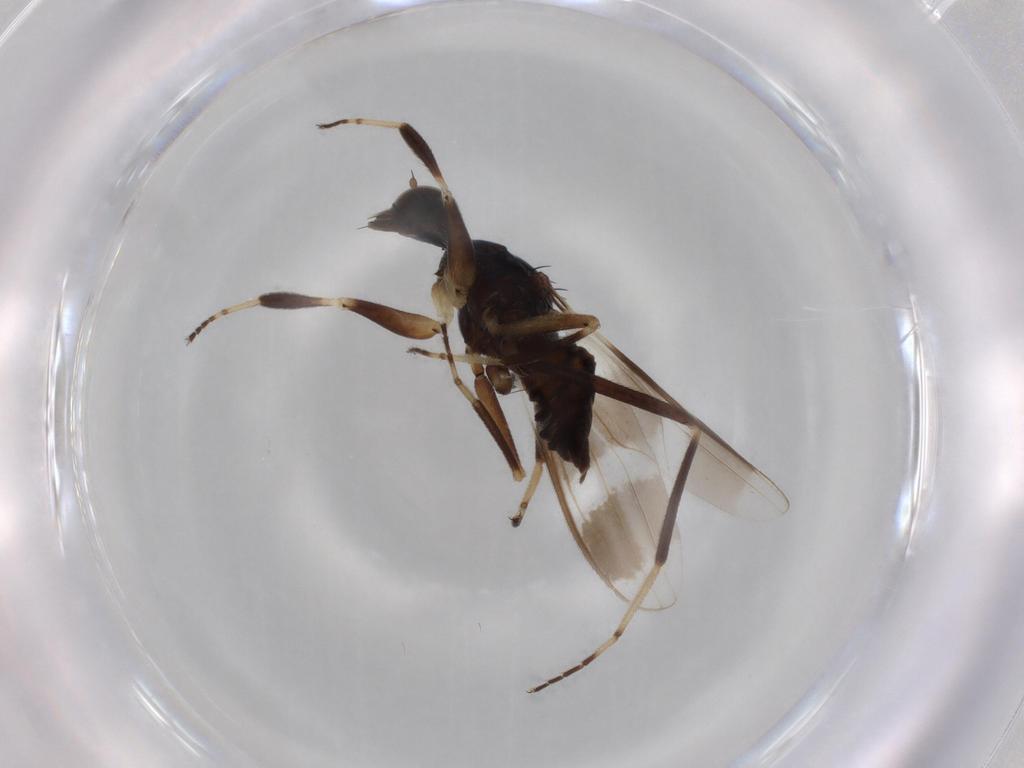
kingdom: Animalia
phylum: Arthropoda
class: Insecta
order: Diptera
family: Hybotidae
